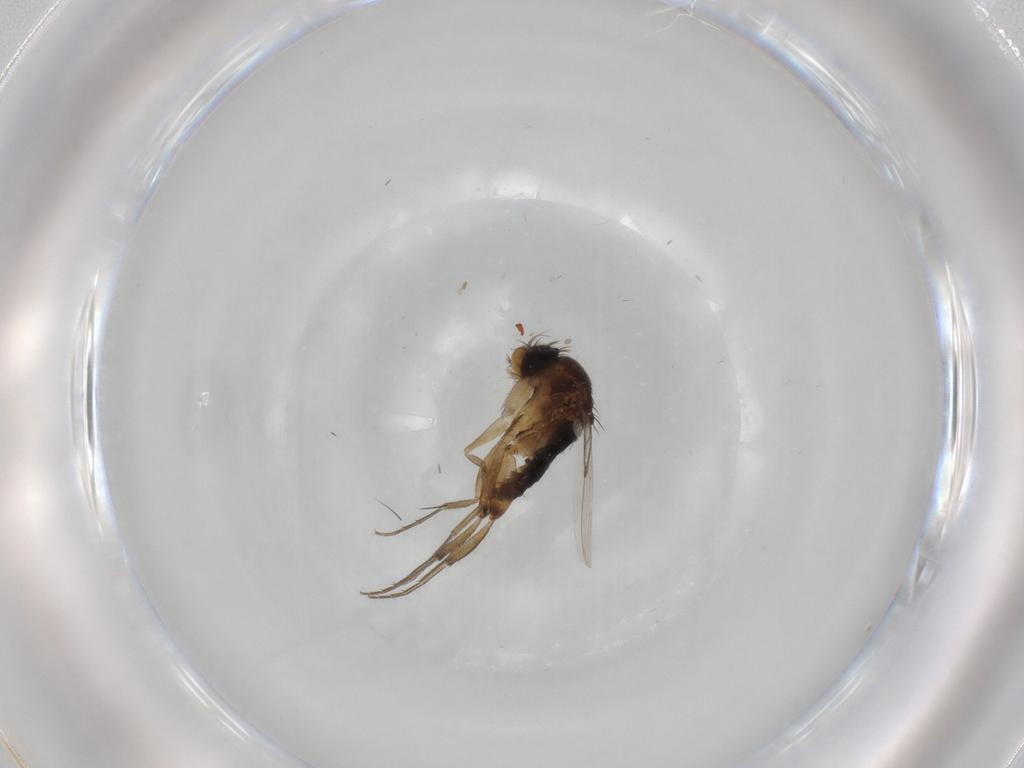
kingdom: Animalia
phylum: Arthropoda
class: Insecta
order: Diptera
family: Phoridae
